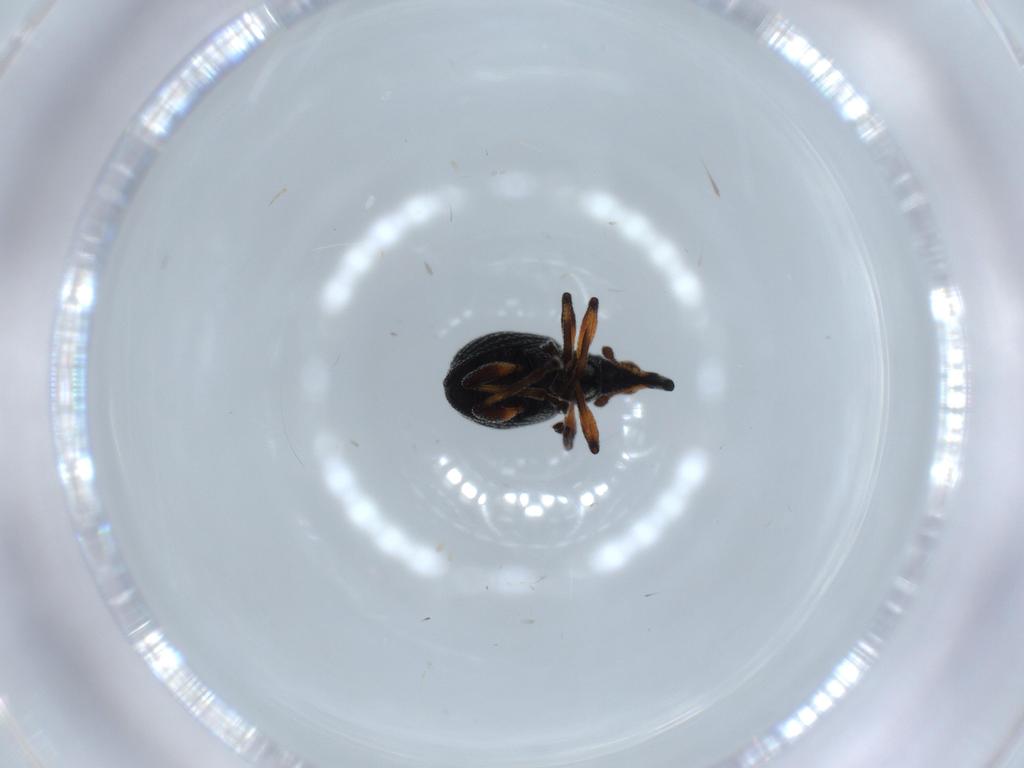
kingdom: Animalia
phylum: Arthropoda
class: Insecta
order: Coleoptera
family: Brentidae
